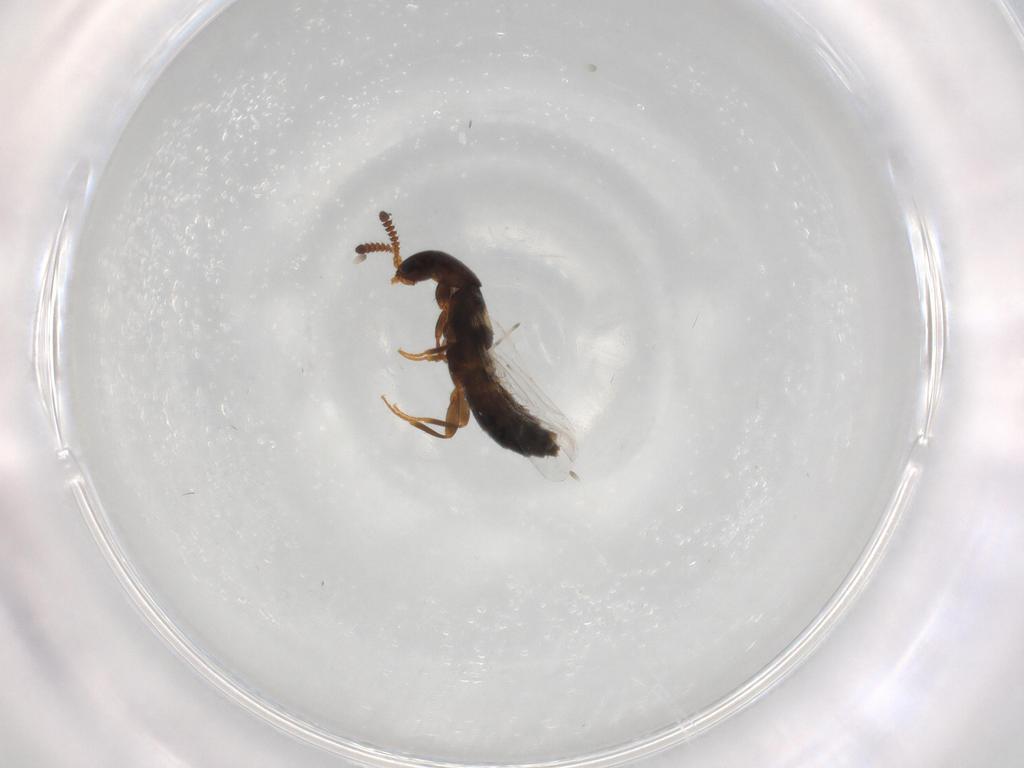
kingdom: Animalia
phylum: Arthropoda
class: Insecta
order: Coleoptera
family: Staphylinidae
